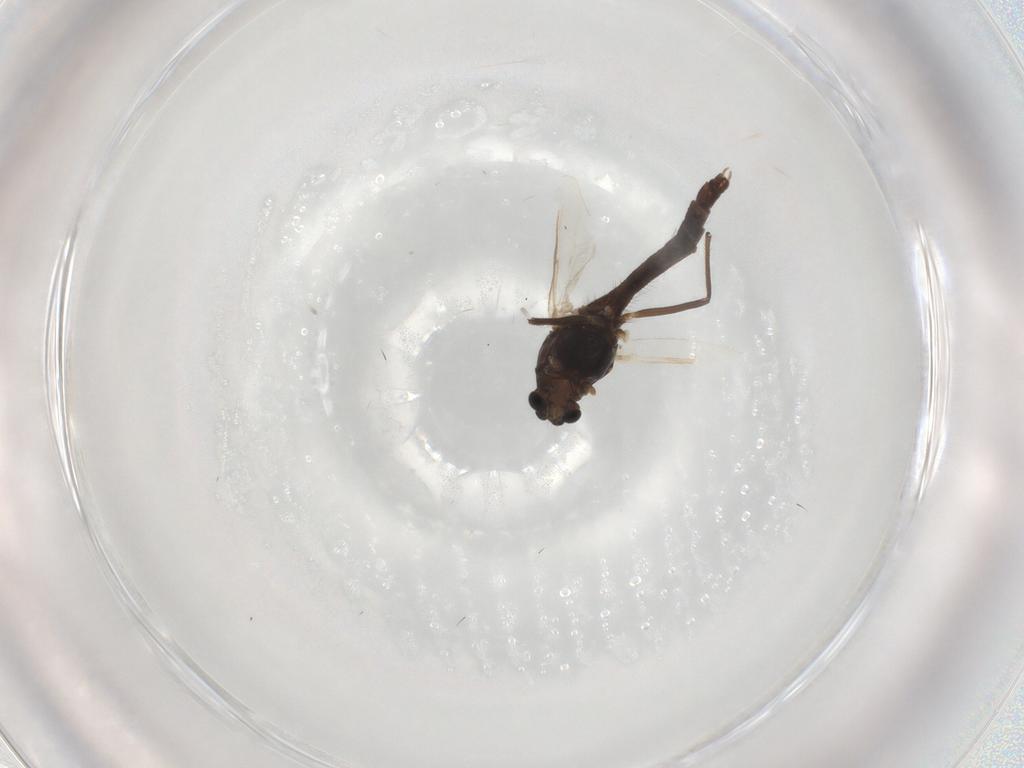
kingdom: Animalia
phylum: Arthropoda
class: Insecta
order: Diptera
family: Chironomidae
